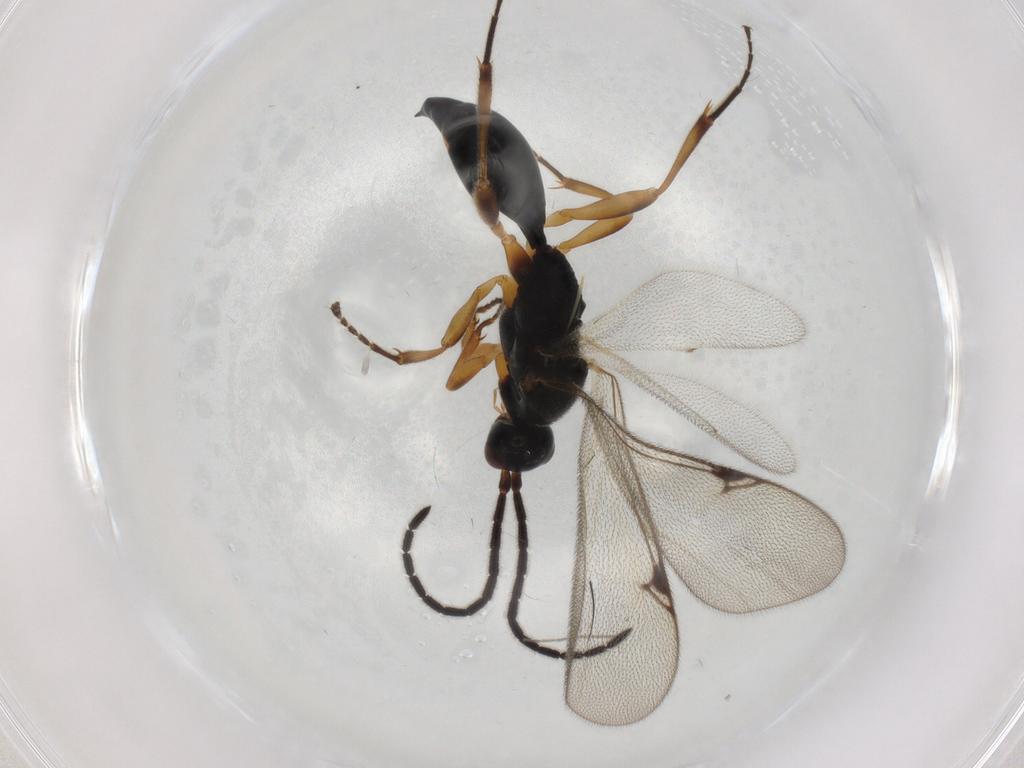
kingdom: Animalia
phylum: Arthropoda
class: Insecta
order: Hymenoptera
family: Proctotrupidae
